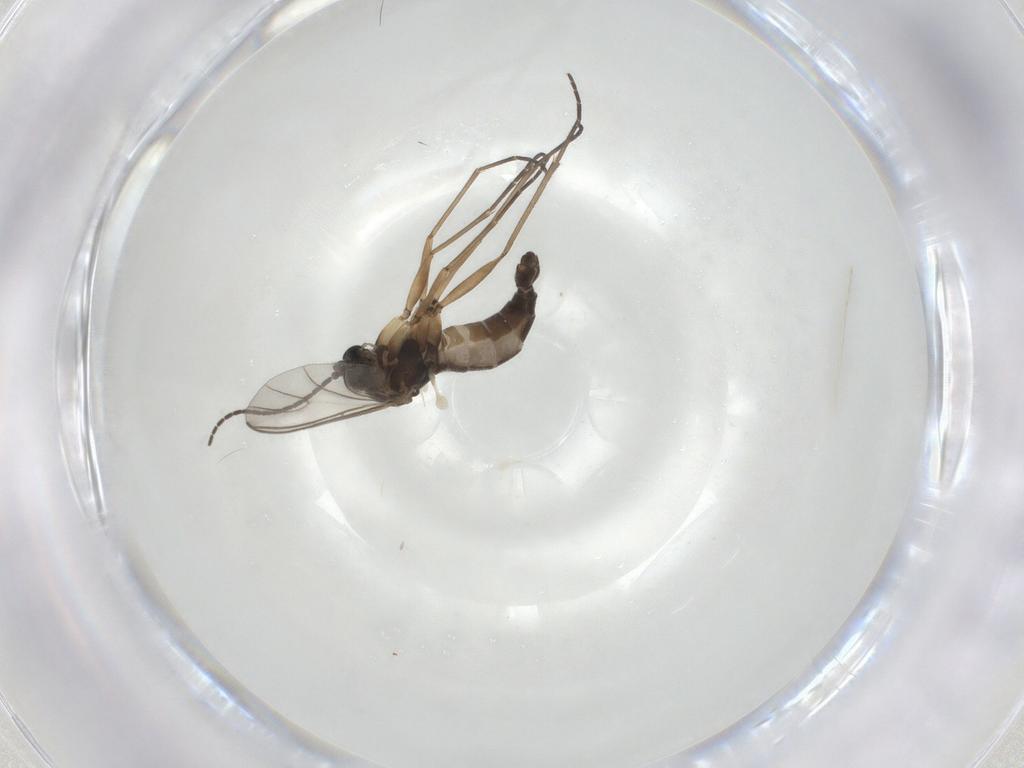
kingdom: Animalia
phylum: Arthropoda
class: Insecta
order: Diptera
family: Sciaridae
